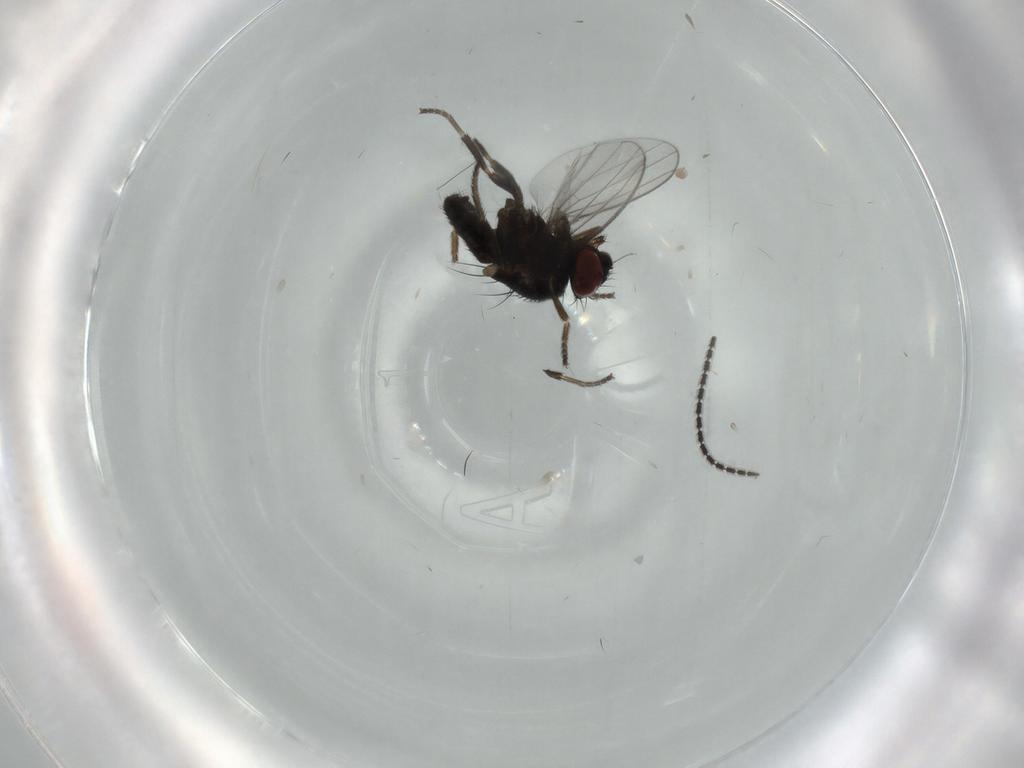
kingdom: Animalia
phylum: Arthropoda
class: Insecta
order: Diptera
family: Milichiidae
